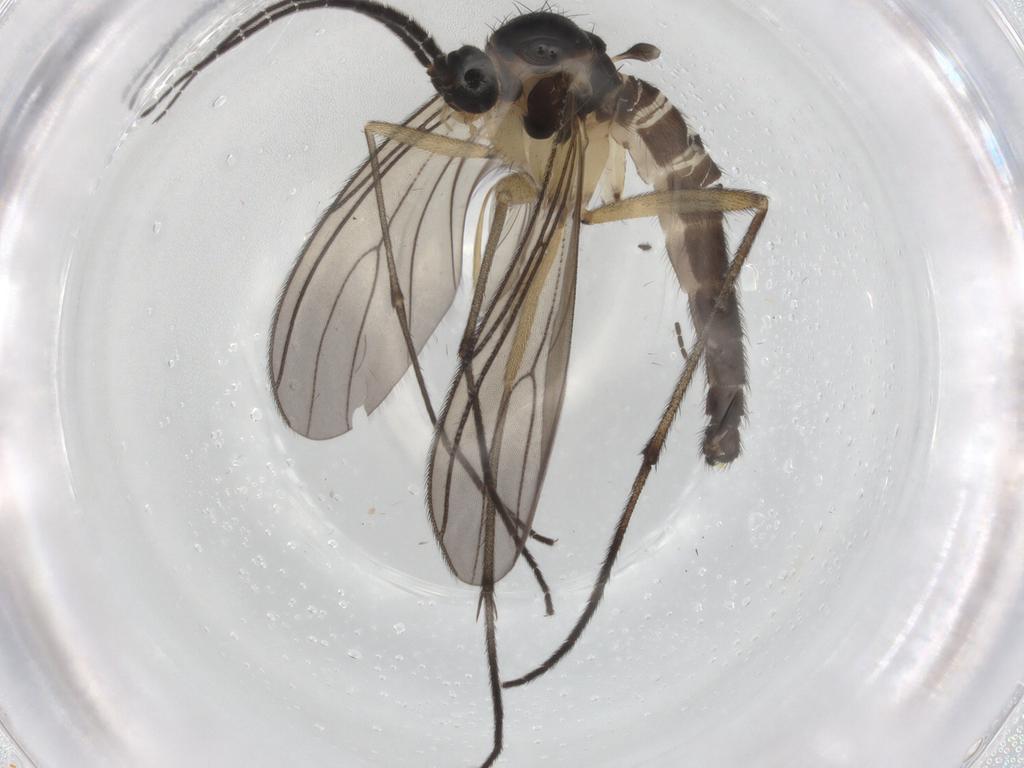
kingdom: Animalia
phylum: Arthropoda
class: Insecta
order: Diptera
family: Sciaridae
